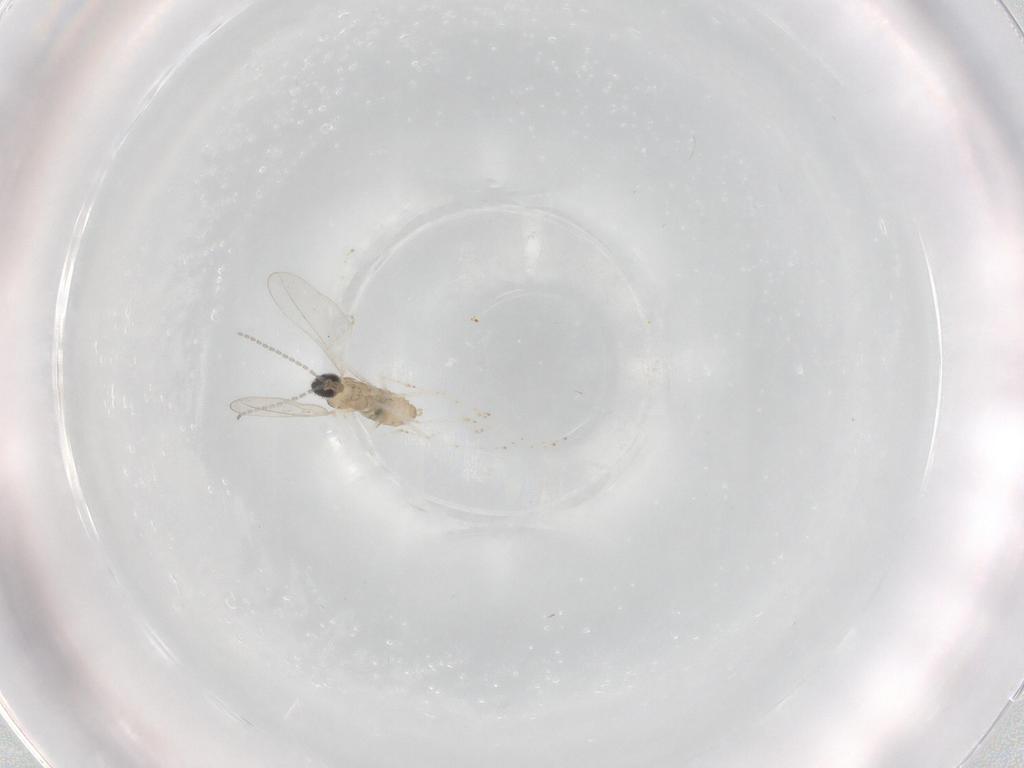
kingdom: Animalia
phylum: Arthropoda
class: Insecta
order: Diptera
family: Cecidomyiidae
